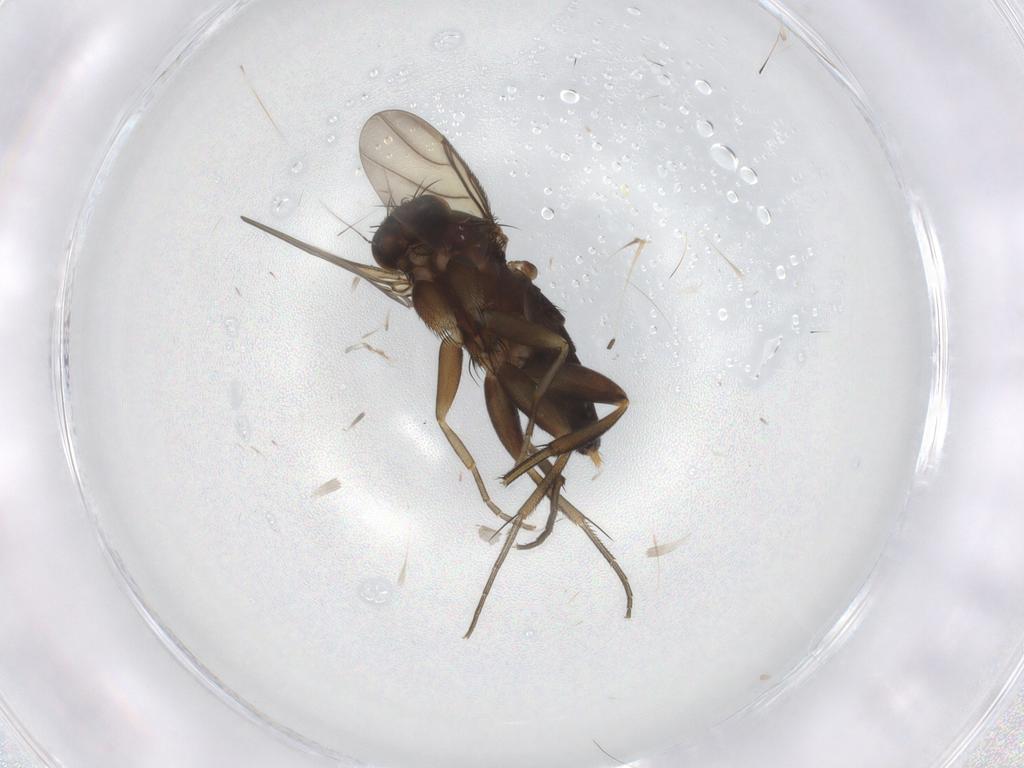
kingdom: Animalia
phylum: Arthropoda
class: Insecta
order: Diptera
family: Phoridae
